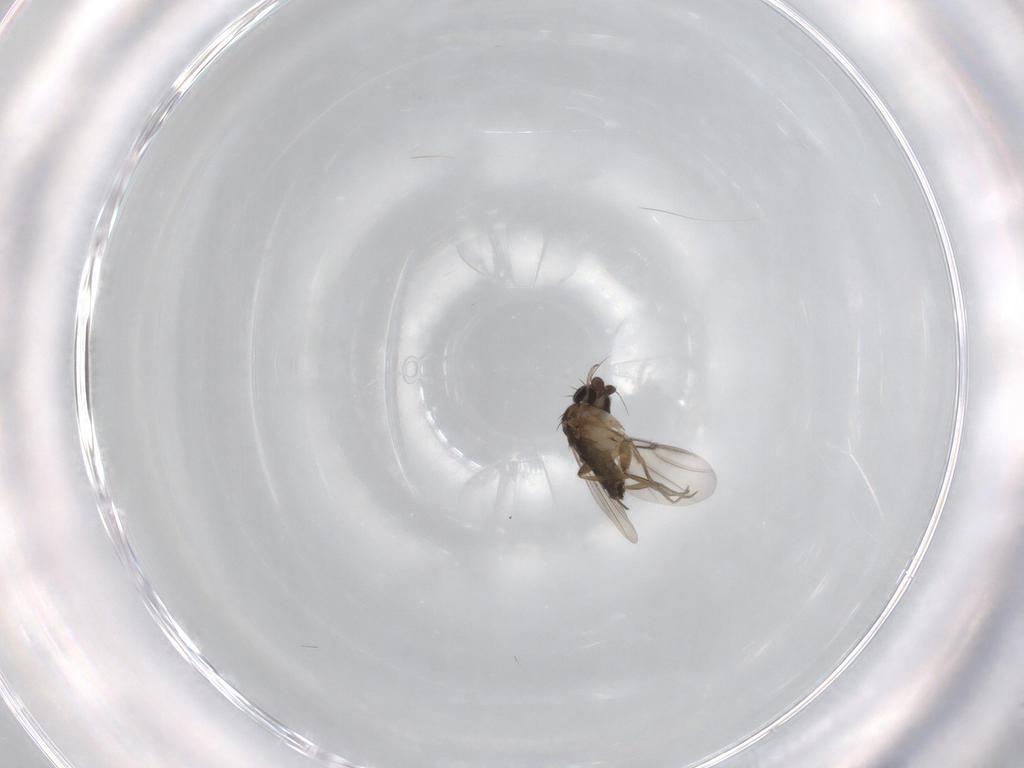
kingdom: Animalia
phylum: Arthropoda
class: Insecta
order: Diptera
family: Phoridae
